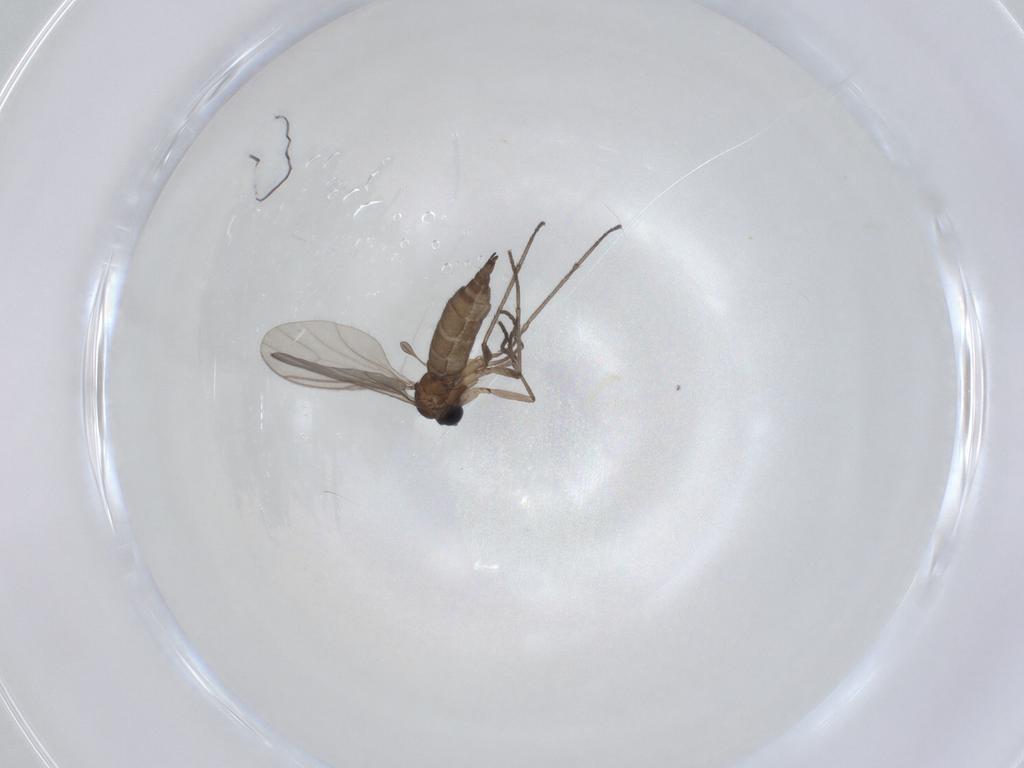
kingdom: Animalia
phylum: Arthropoda
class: Insecta
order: Diptera
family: Sciaridae
